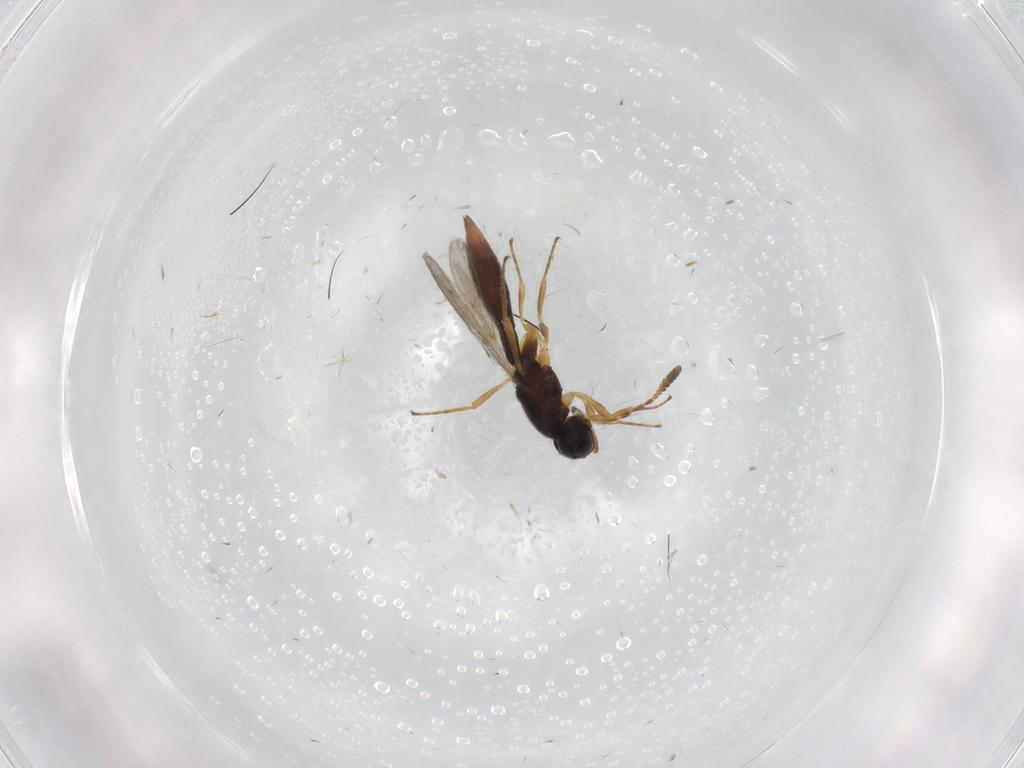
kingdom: Animalia
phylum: Arthropoda
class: Insecta
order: Hymenoptera
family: Scelionidae
